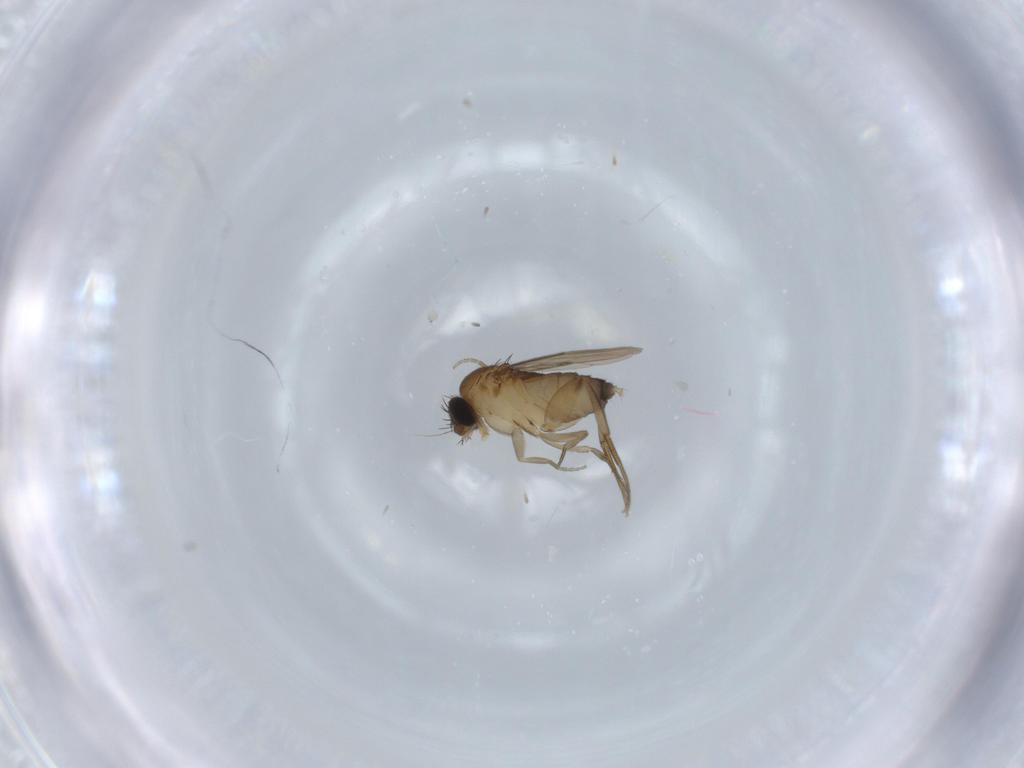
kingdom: Animalia
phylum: Arthropoda
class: Insecta
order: Diptera
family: Phoridae
